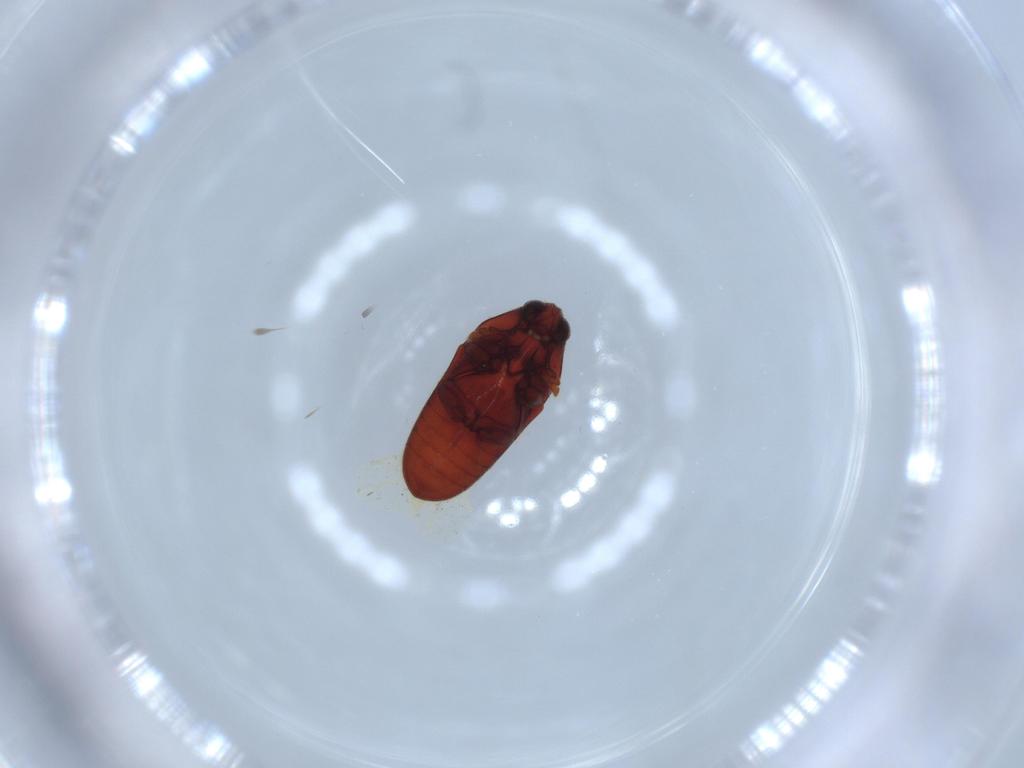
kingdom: Animalia
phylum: Arthropoda
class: Insecta
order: Coleoptera
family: Throscidae
